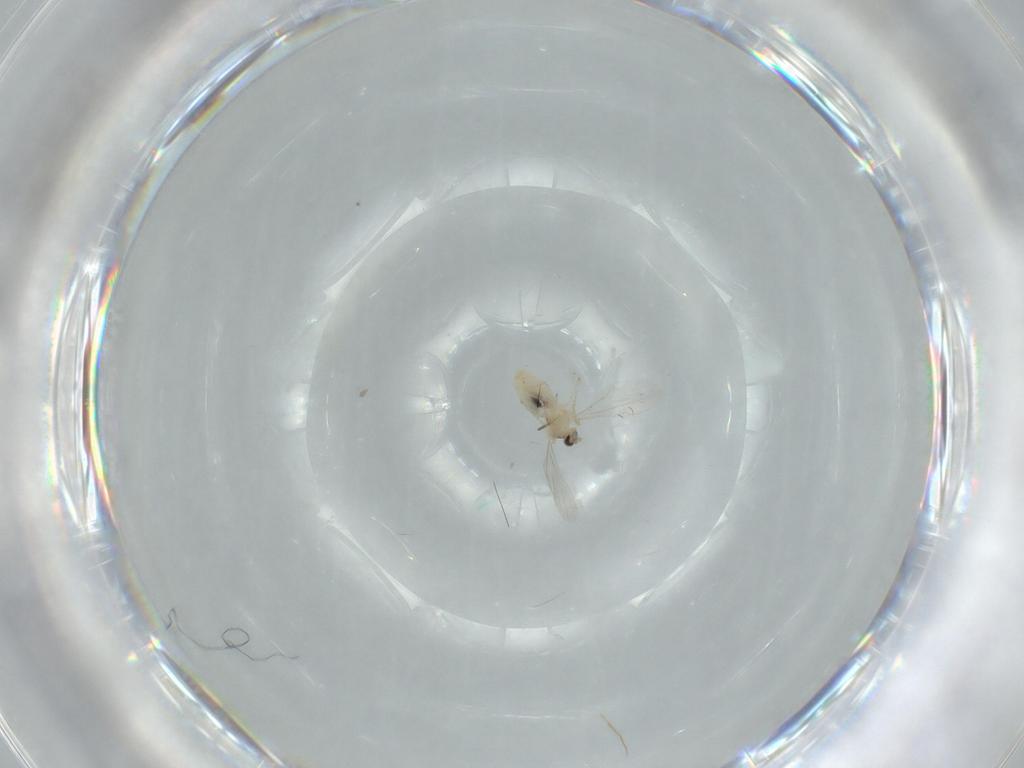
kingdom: Animalia
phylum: Arthropoda
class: Insecta
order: Diptera
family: Cecidomyiidae
